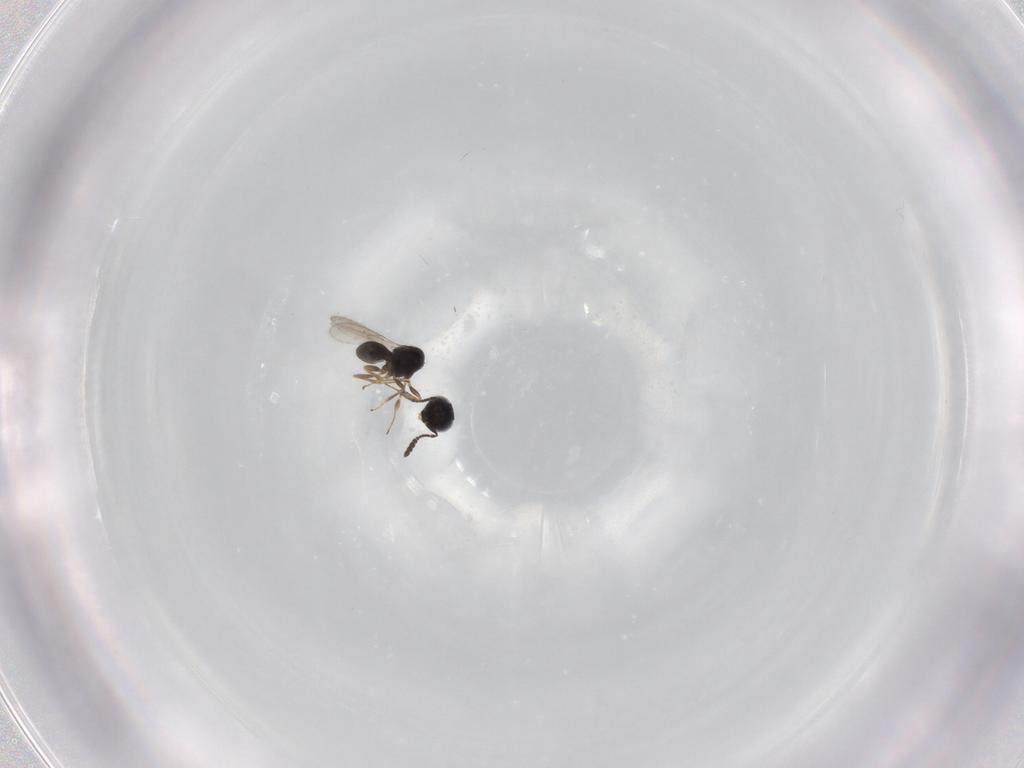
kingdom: Animalia
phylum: Arthropoda
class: Insecta
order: Hymenoptera
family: Scelionidae
